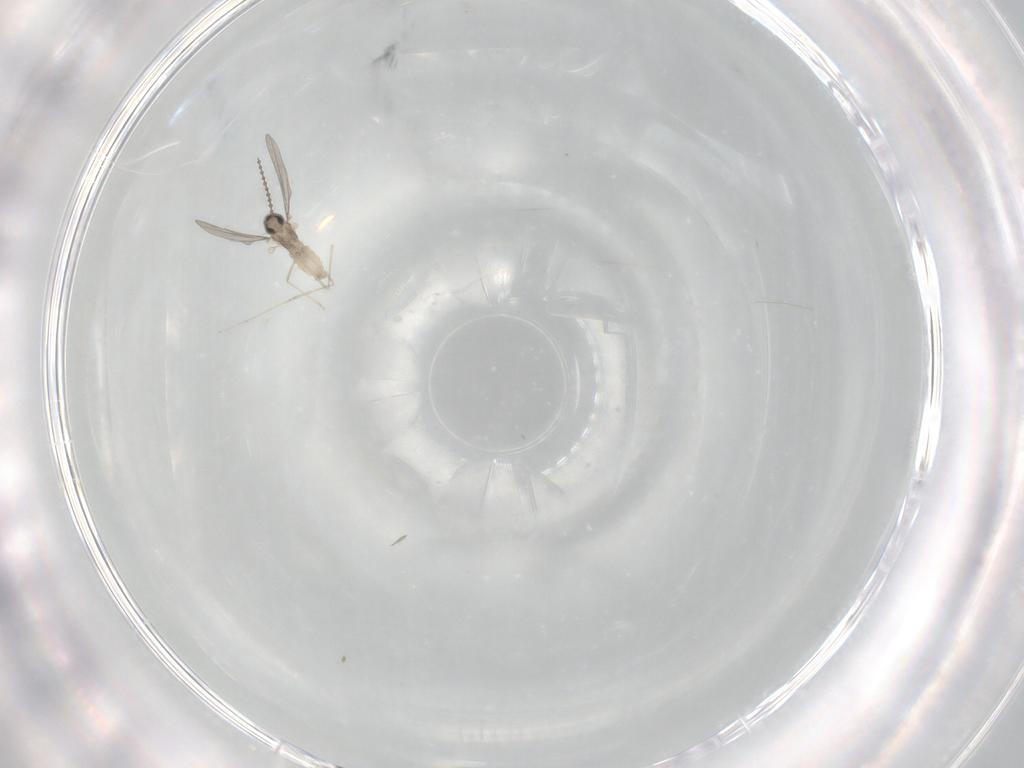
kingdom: Animalia
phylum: Arthropoda
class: Insecta
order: Diptera
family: Cecidomyiidae
